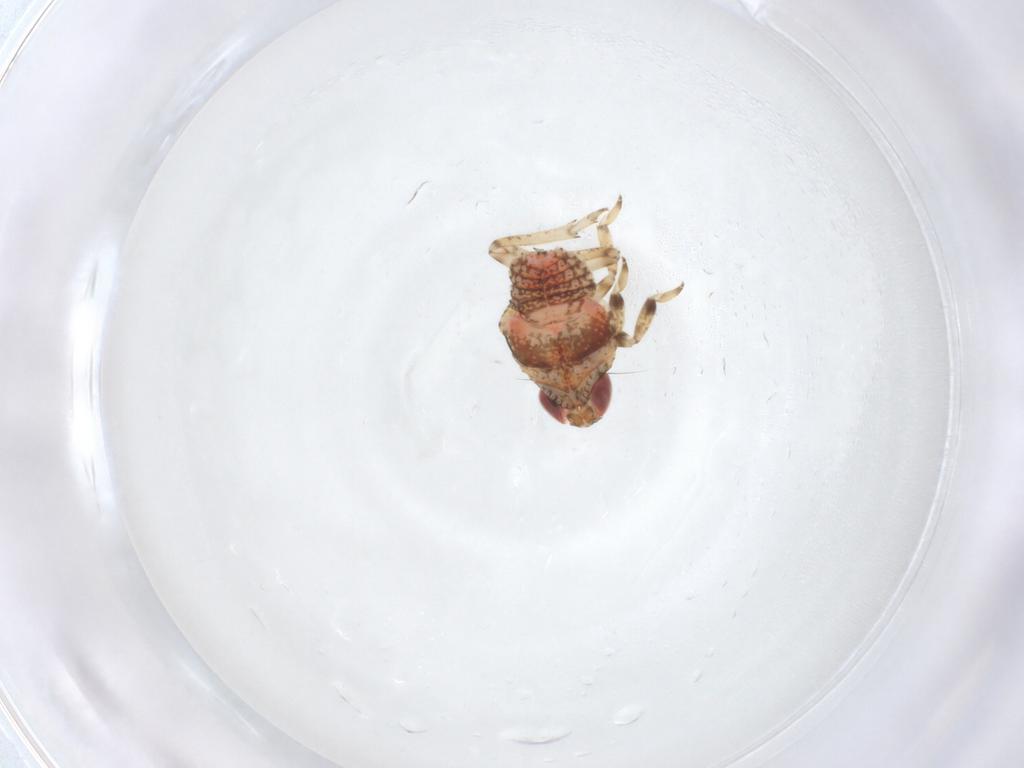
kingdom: Animalia
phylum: Arthropoda
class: Insecta
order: Hemiptera
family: Issidae
